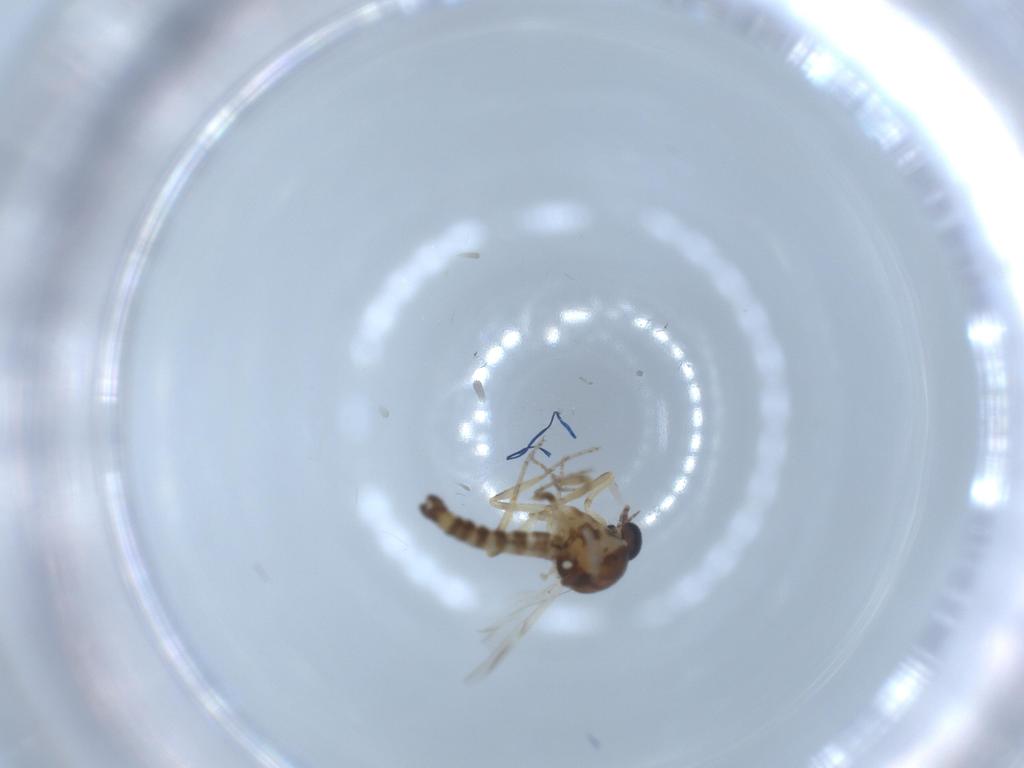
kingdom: Animalia
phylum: Arthropoda
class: Insecta
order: Diptera
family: Ceratopogonidae
